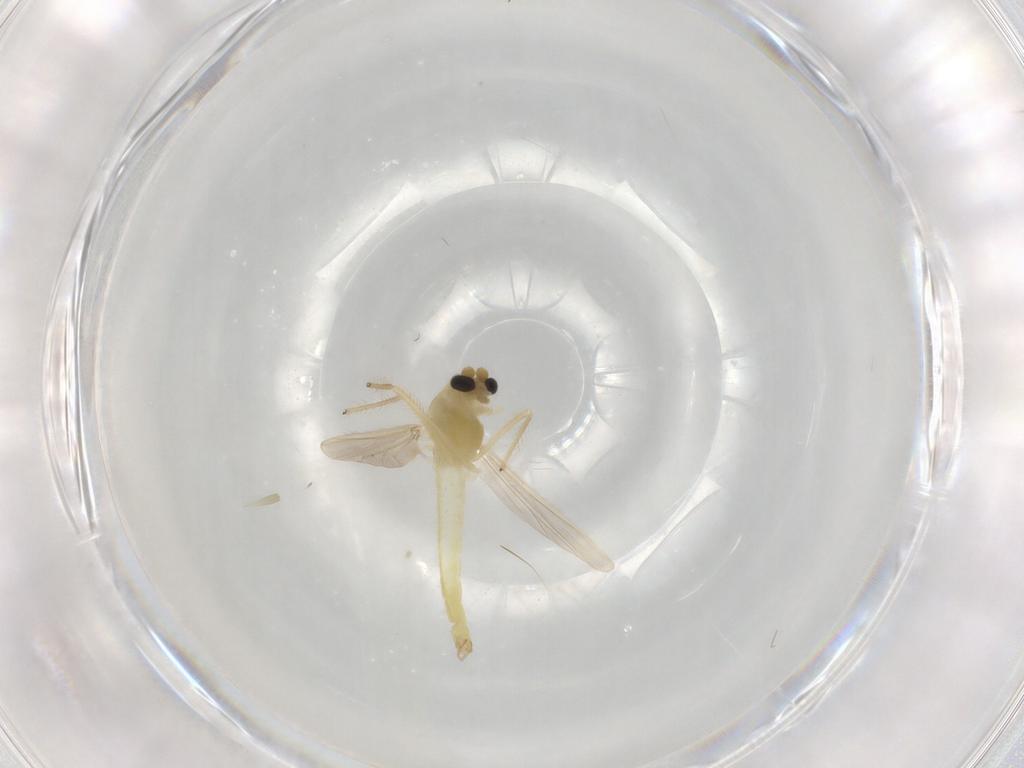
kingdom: Animalia
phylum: Arthropoda
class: Insecta
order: Diptera
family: Chironomidae
